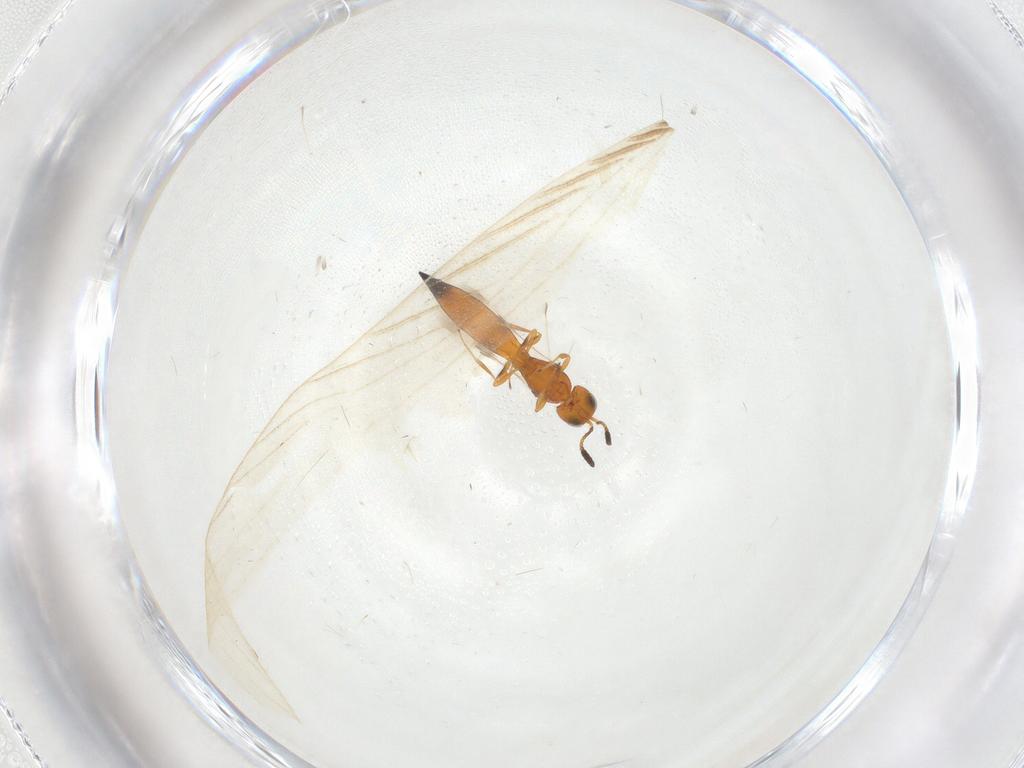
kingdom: Animalia
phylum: Arthropoda
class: Insecta
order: Hymenoptera
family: Scelionidae
